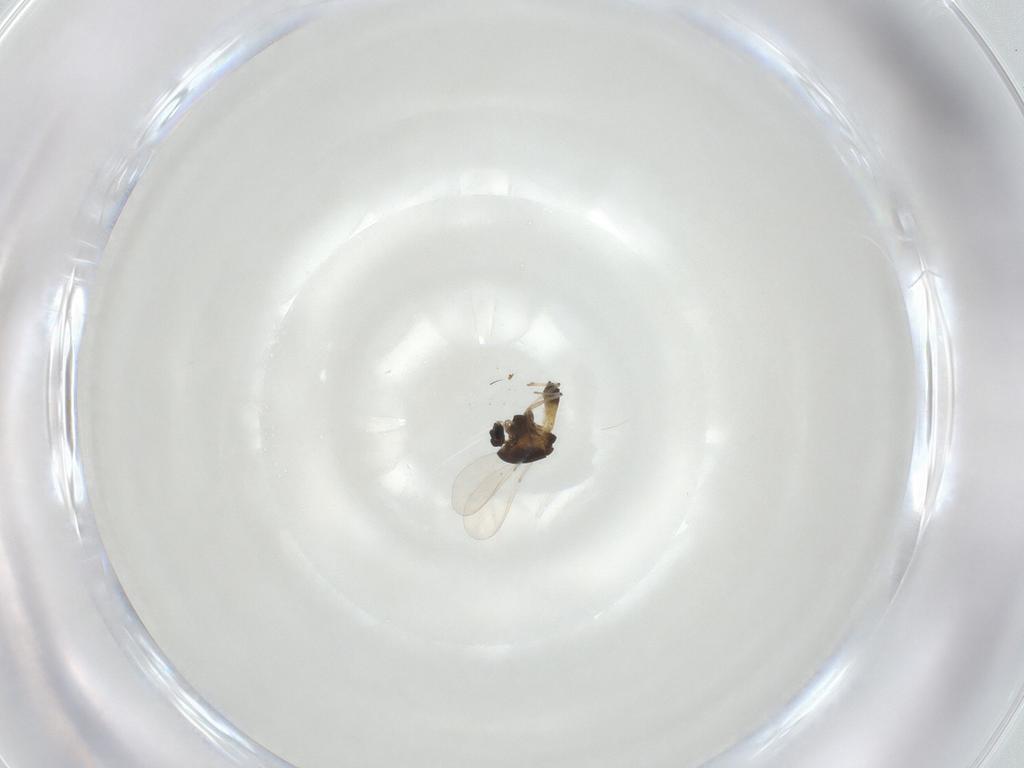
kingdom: Animalia
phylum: Arthropoda
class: Insecta
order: Diptera
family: Chironomidae
